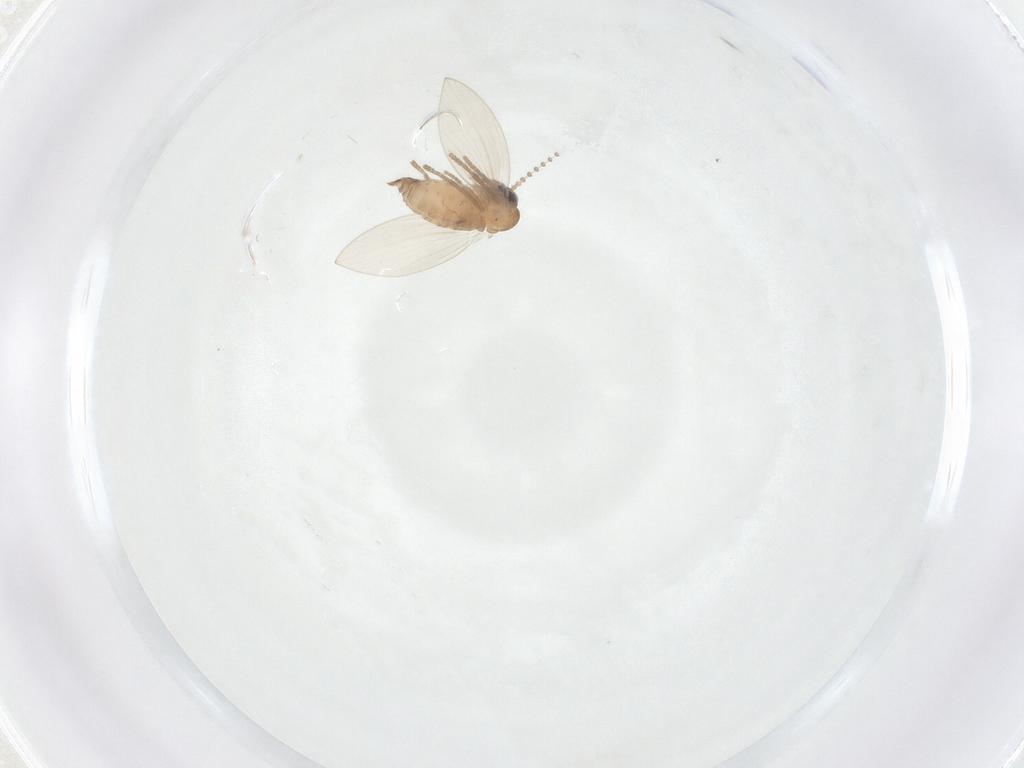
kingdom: Animalia
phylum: Arthropoda
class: Insecta
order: Diptera
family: Psychodidae
